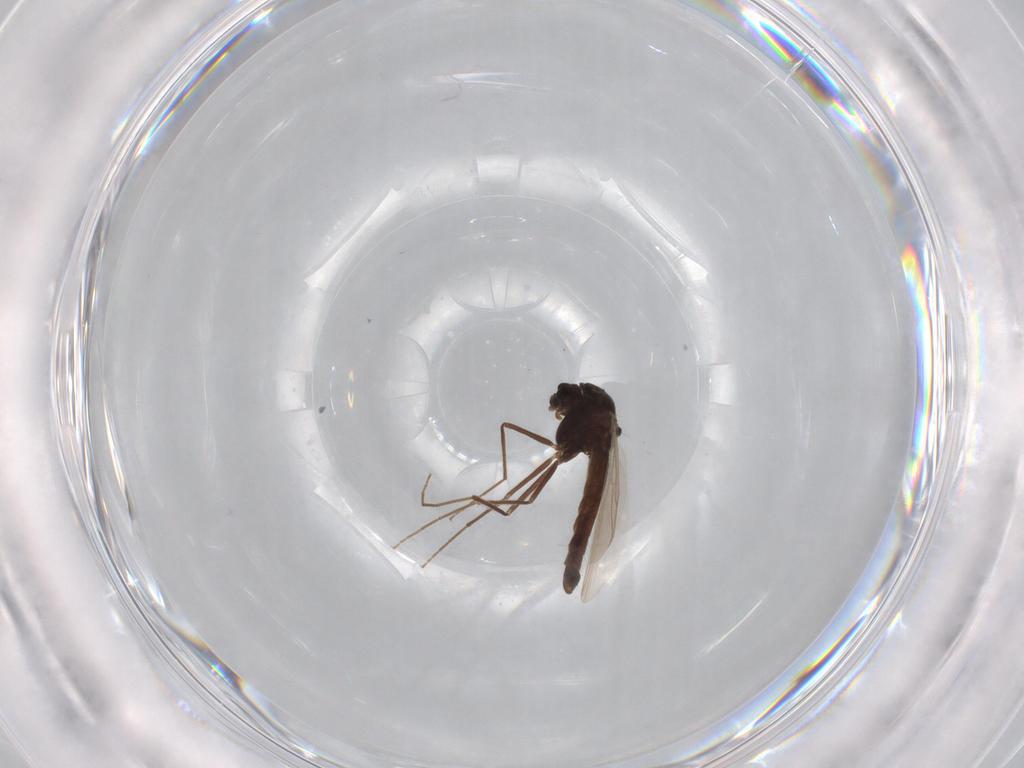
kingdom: Animalia
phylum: Arthropoda
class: Insecta
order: Diptera
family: Chironomidae
